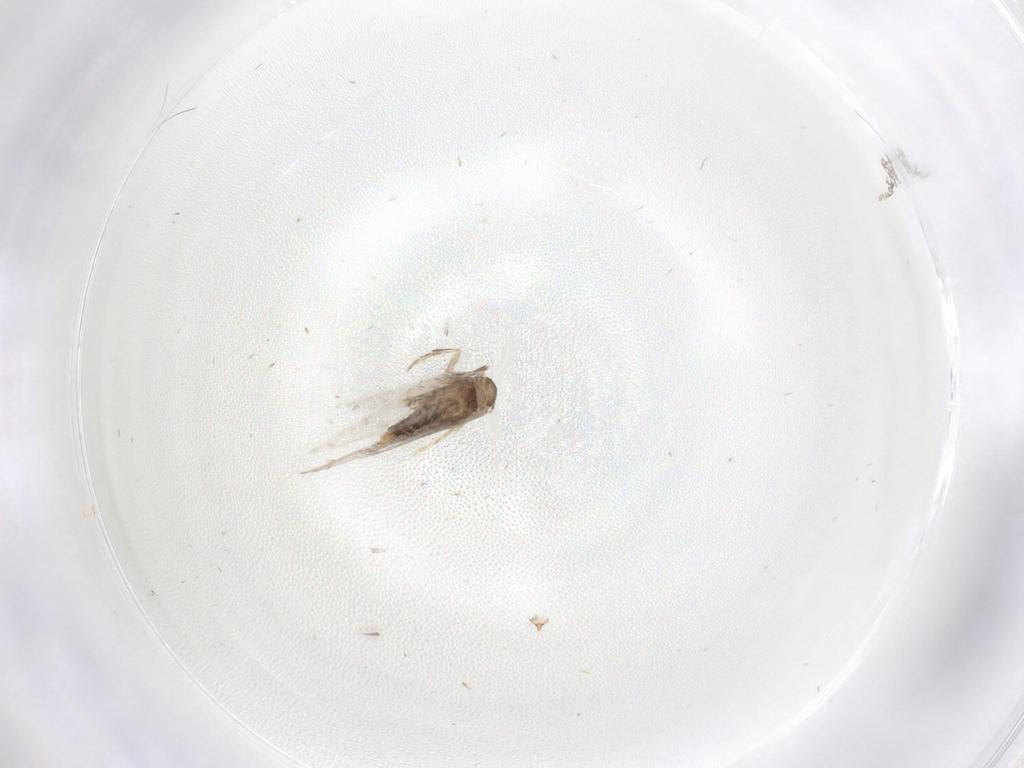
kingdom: Animalia
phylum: Arthropoda
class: Insecta
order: Lepidoptera
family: Nepticulidae
